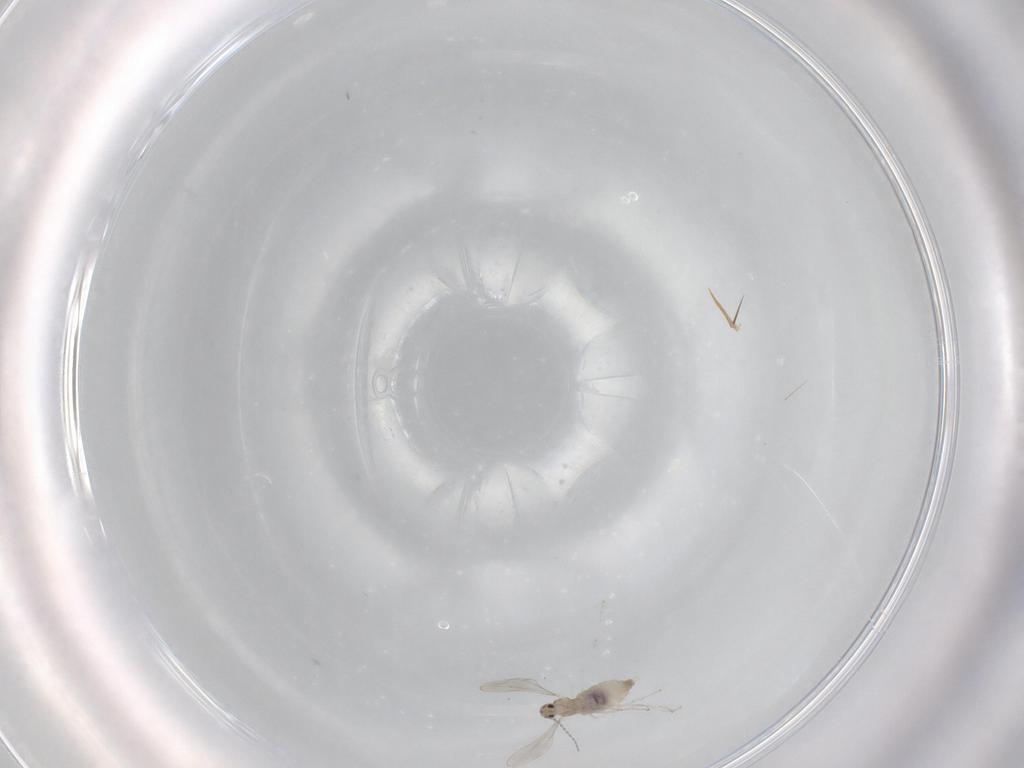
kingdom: Animalia
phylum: Arthropoda
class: Insecta
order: Diptera
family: Cecidomyiidae
